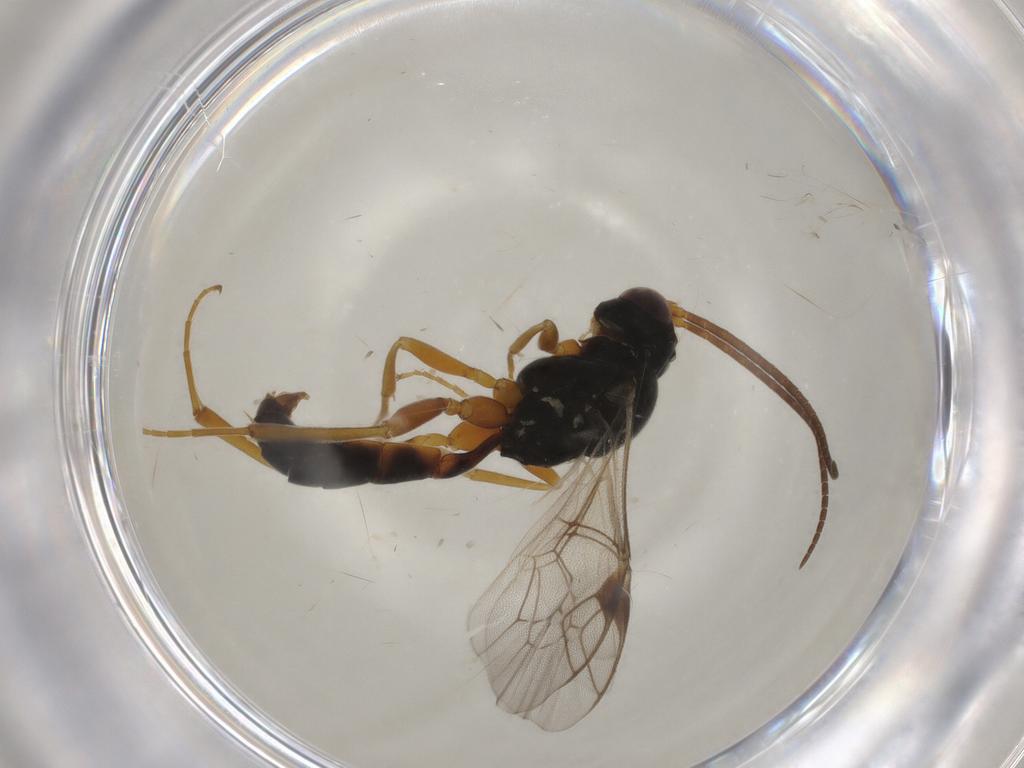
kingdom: Animalia
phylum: Arthropoda
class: Insecta
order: Hymenoptera
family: Ichneumonidae
